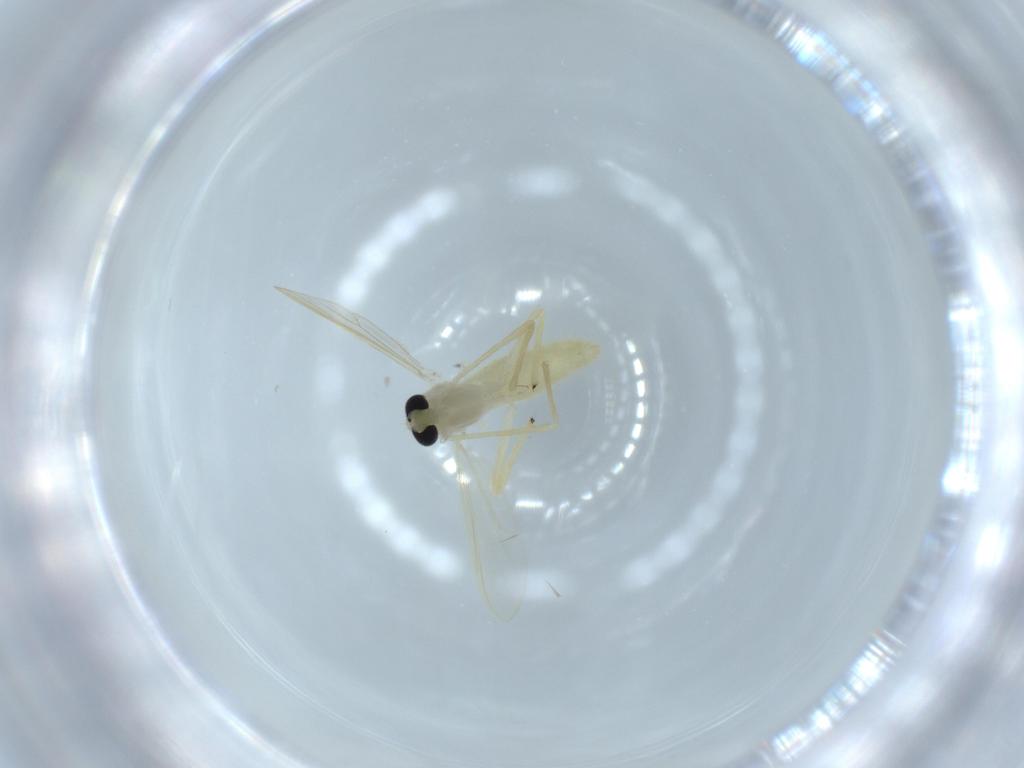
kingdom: Animalia
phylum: Arthropoda
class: Insecta
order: Diptera
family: Chironomidae
